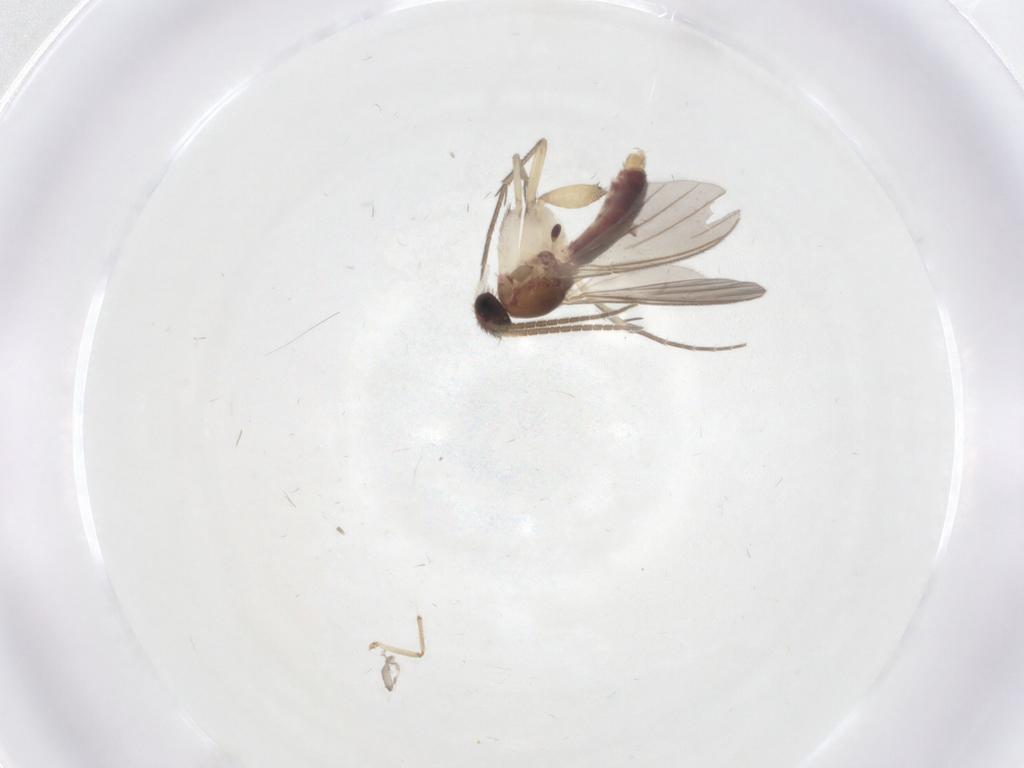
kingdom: Animalia
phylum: Arthropoda
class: Insecta
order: Diptera
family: Mycetophilidae
